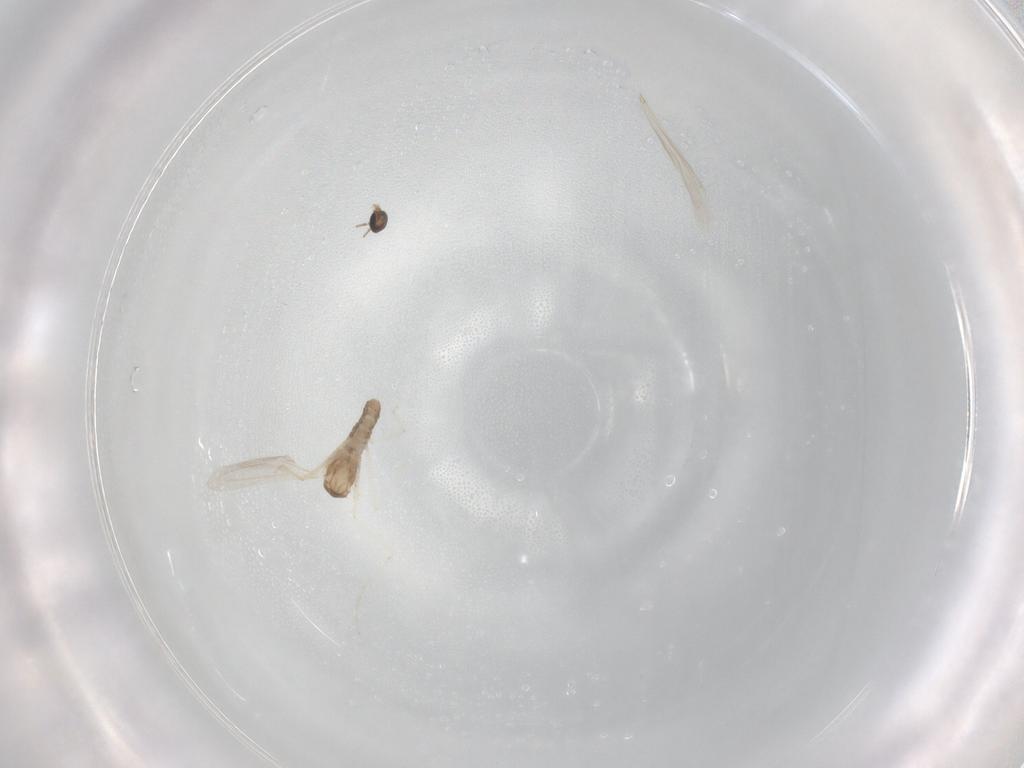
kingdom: Animalia
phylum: Arthropoda
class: Insecta
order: Diptera
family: Cecidomyiidae
